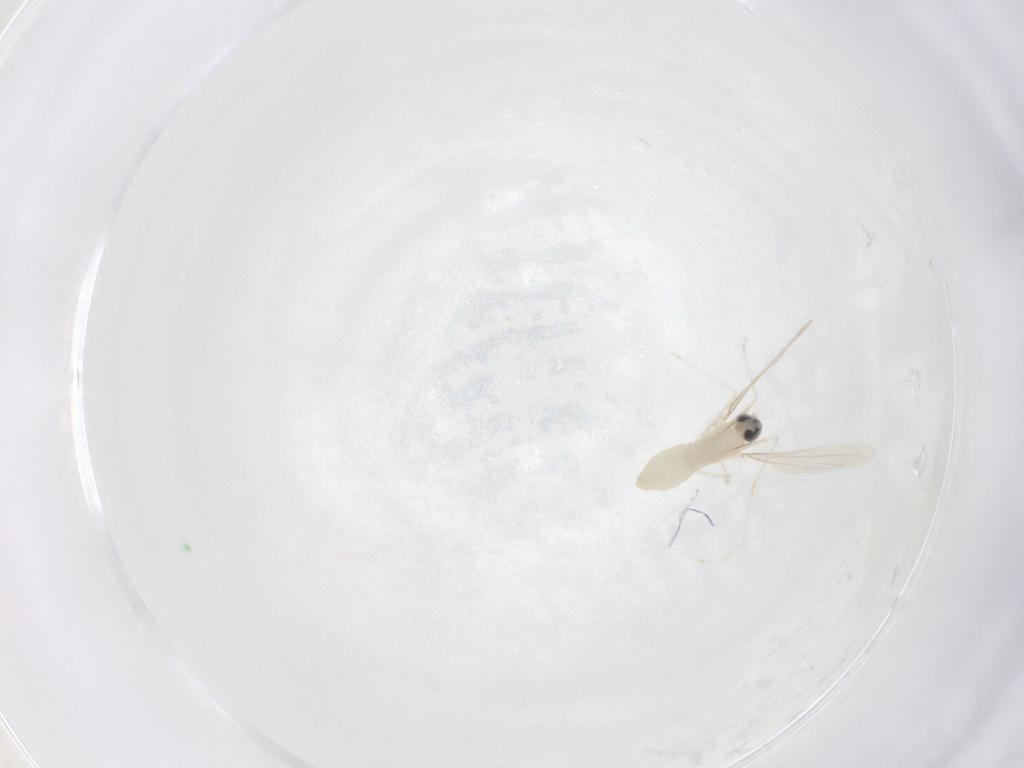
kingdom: Animalia
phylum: Arthropoda
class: Insecta
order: Diptera
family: Cecidomyiidae
